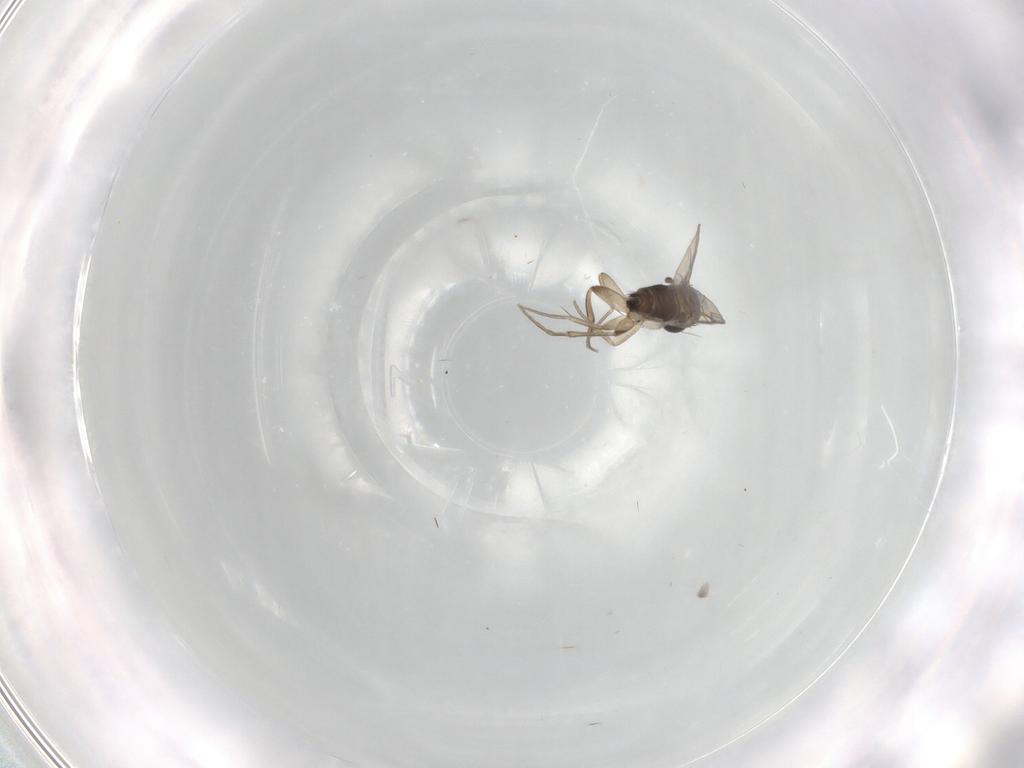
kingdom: Animalia
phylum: Arthropoda
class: Insecta
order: Diptera
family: Phoridae
